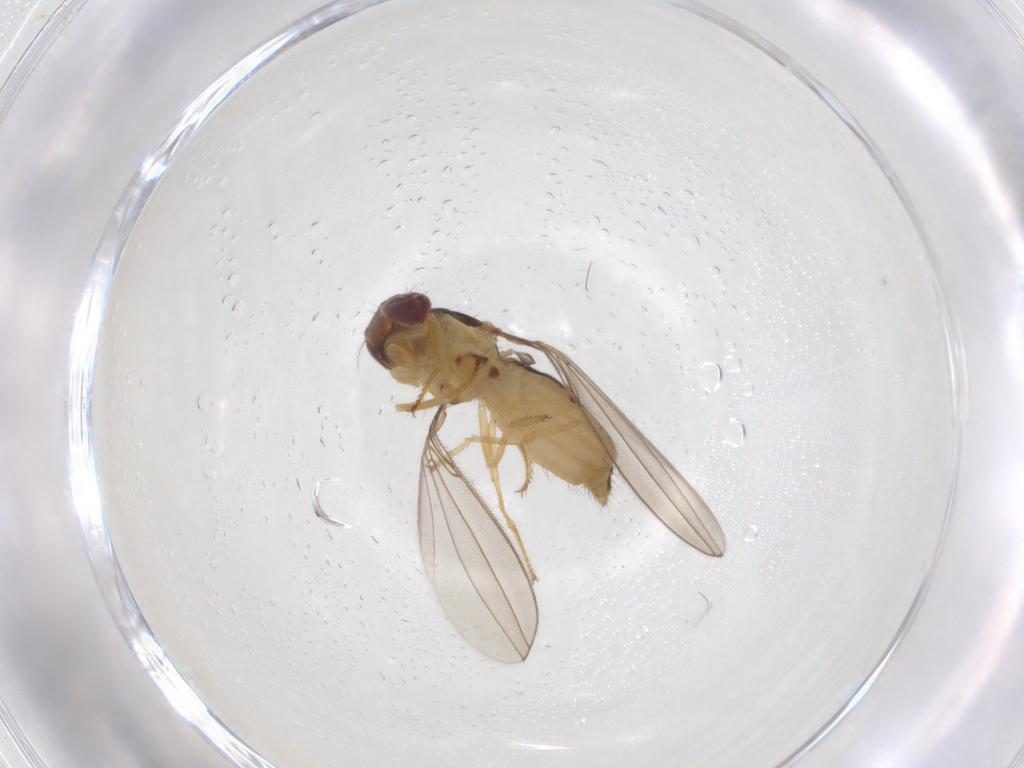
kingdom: Animalia
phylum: Arthropoda
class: Insecta
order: Diptera
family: Asteiidae
